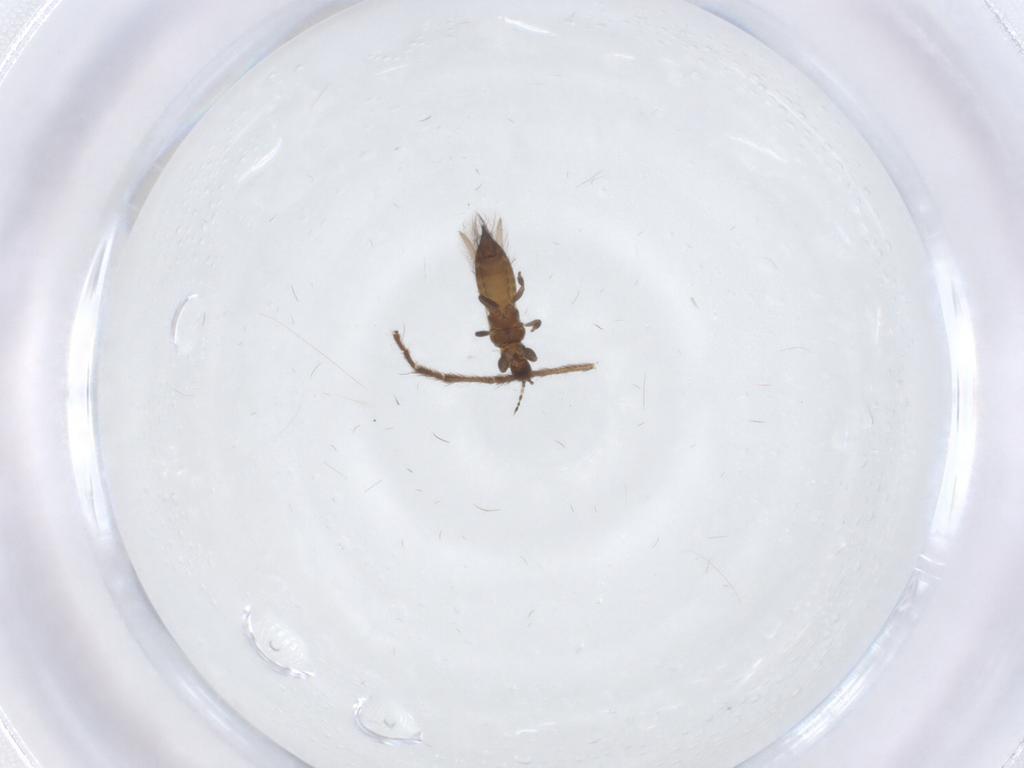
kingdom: Animalia
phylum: Arthropoda
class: Insecta
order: Thysanoptera
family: Thripidae
